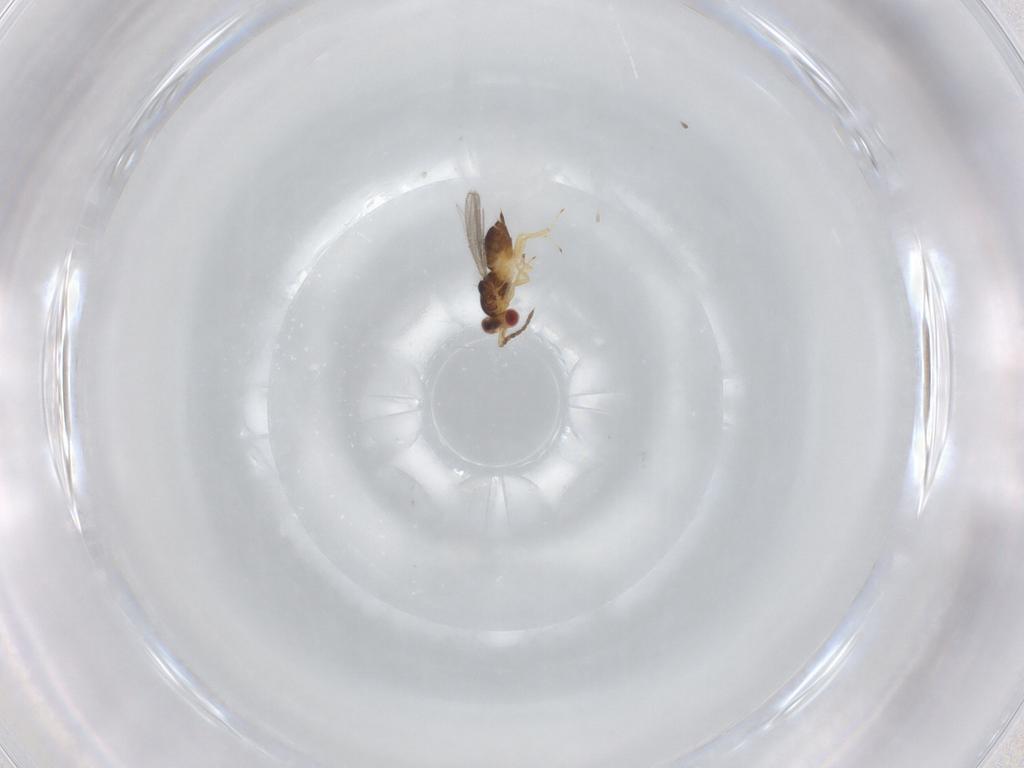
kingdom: Animalia
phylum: Arthropoda
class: Insecta
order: Hymenoptera
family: Eulophidae
